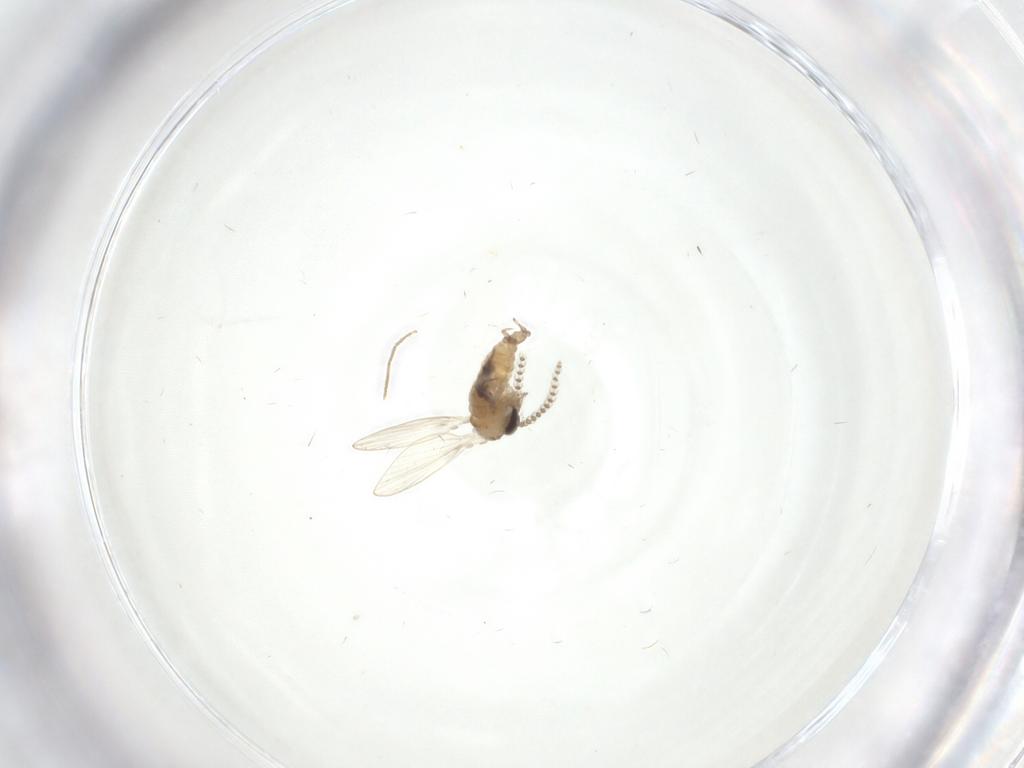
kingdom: Animalia
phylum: Arthropoda
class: Insecta
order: Diptera
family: Psychodidae
